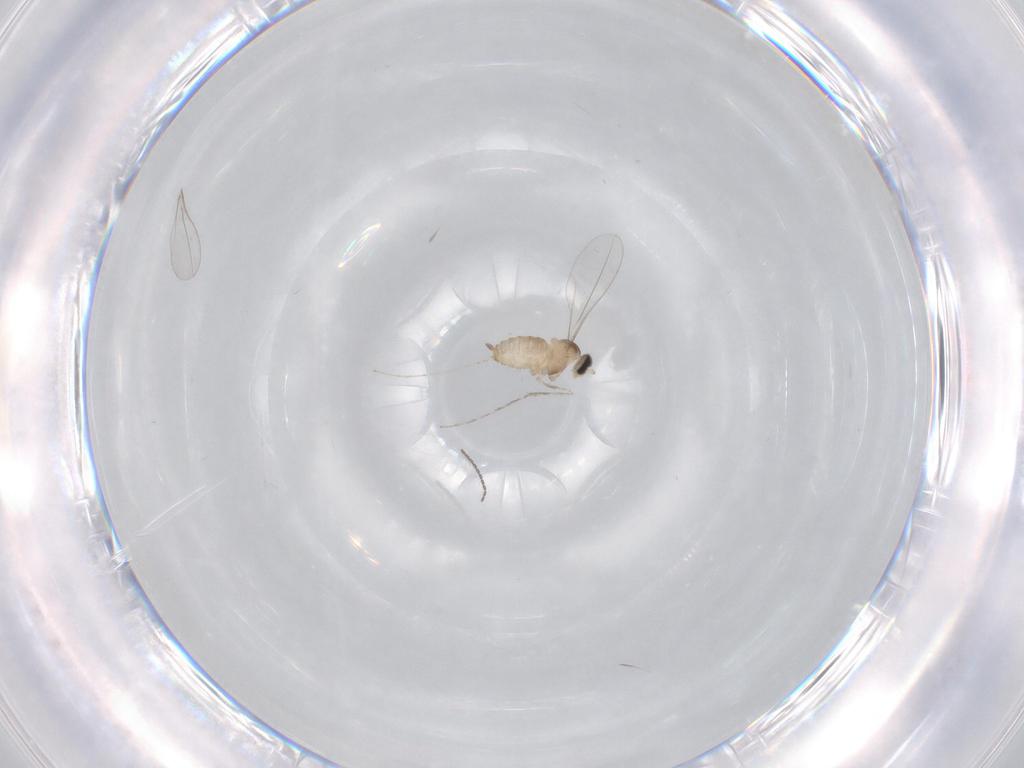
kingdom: Animalia
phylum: Arthropoda
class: Insecta
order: Diptera
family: Cecidomyiidae
